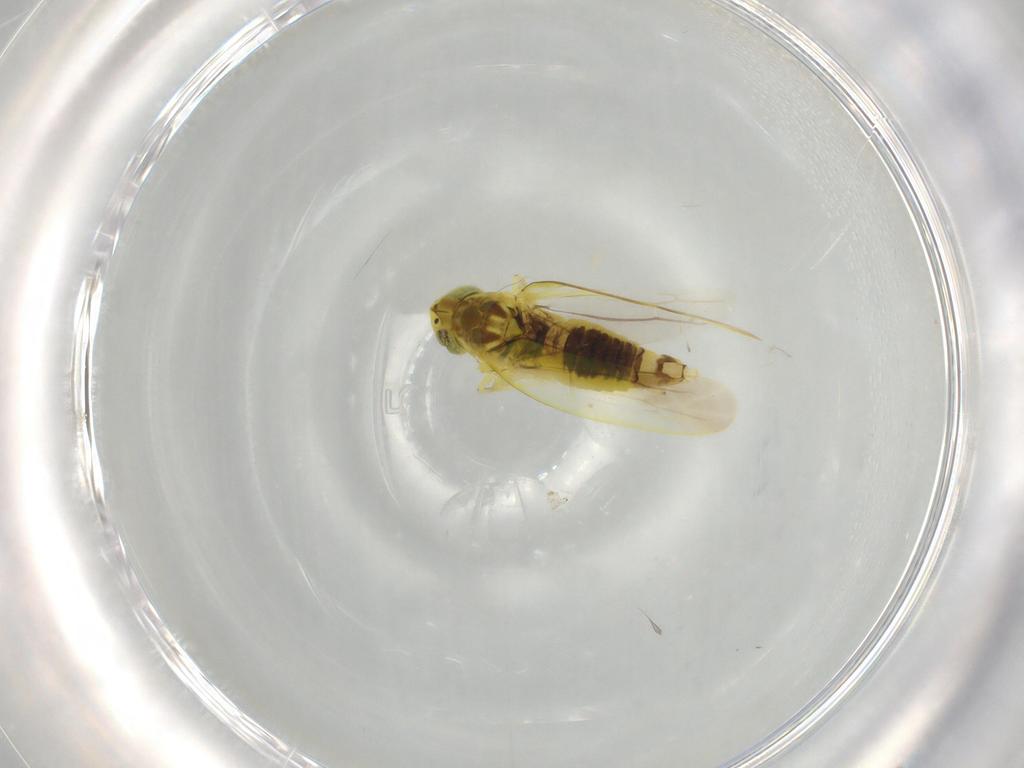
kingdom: Animalia
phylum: Arthropoda
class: Insecta
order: Hemiptera
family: Cicadellidae
